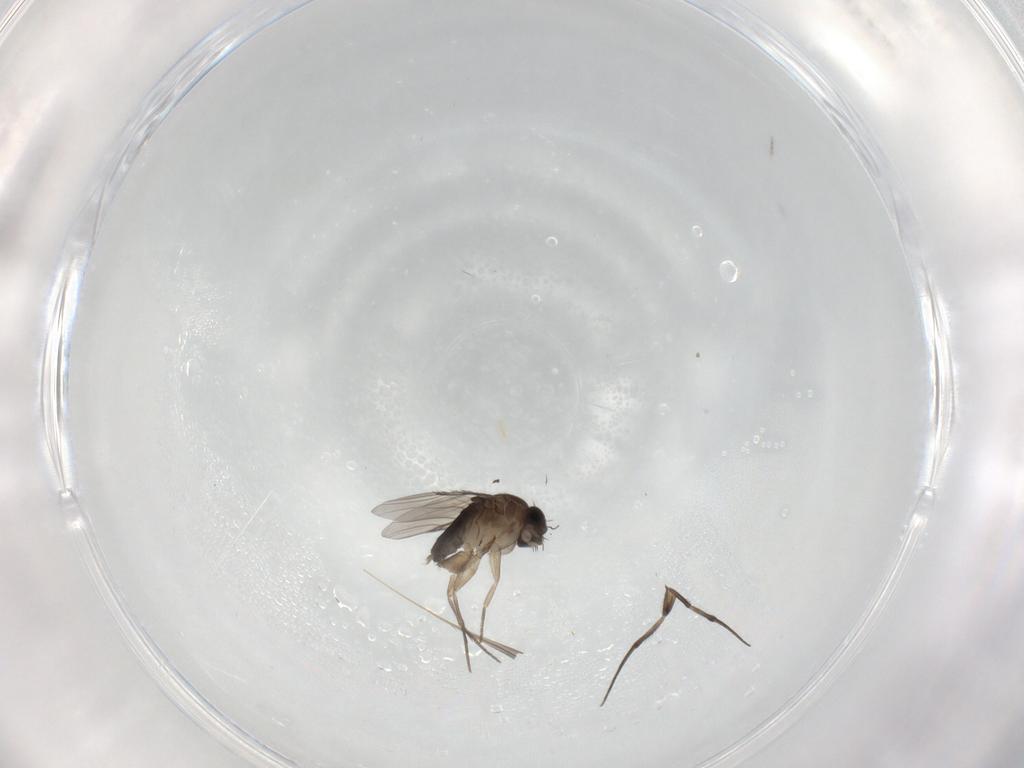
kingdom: Animalia
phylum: Arthropoda
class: Insecta
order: Diptera
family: Phoridae
